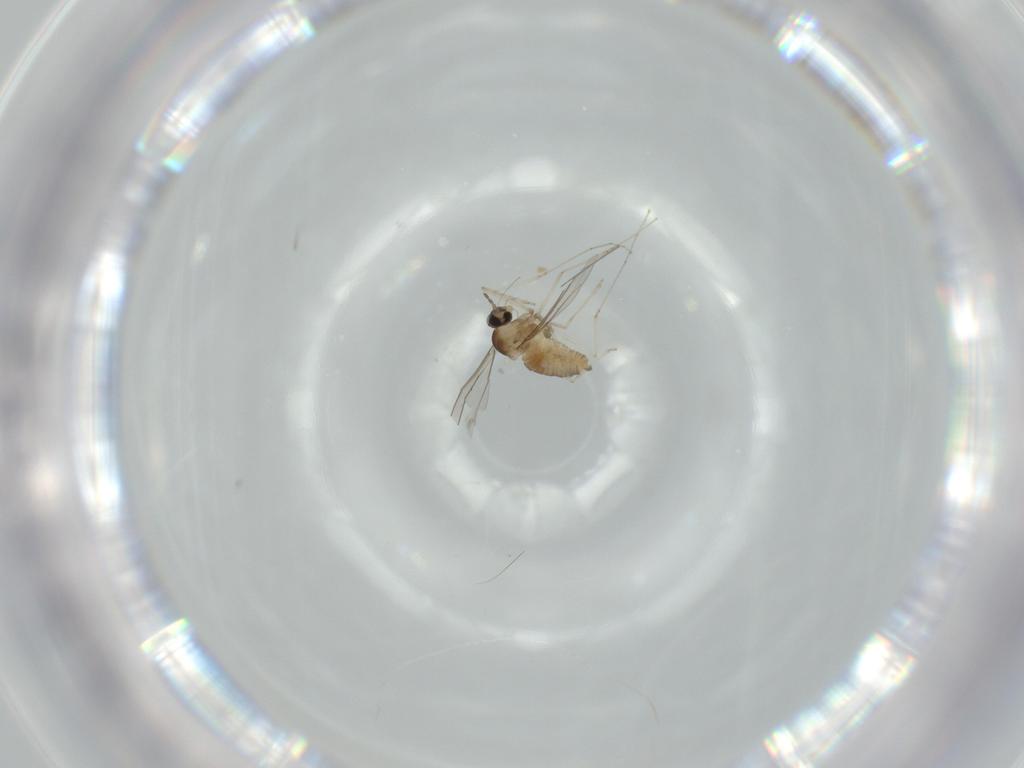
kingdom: Animalia
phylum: Arthropoda
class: Insecta
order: Diptera
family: Cecidomyiidae
